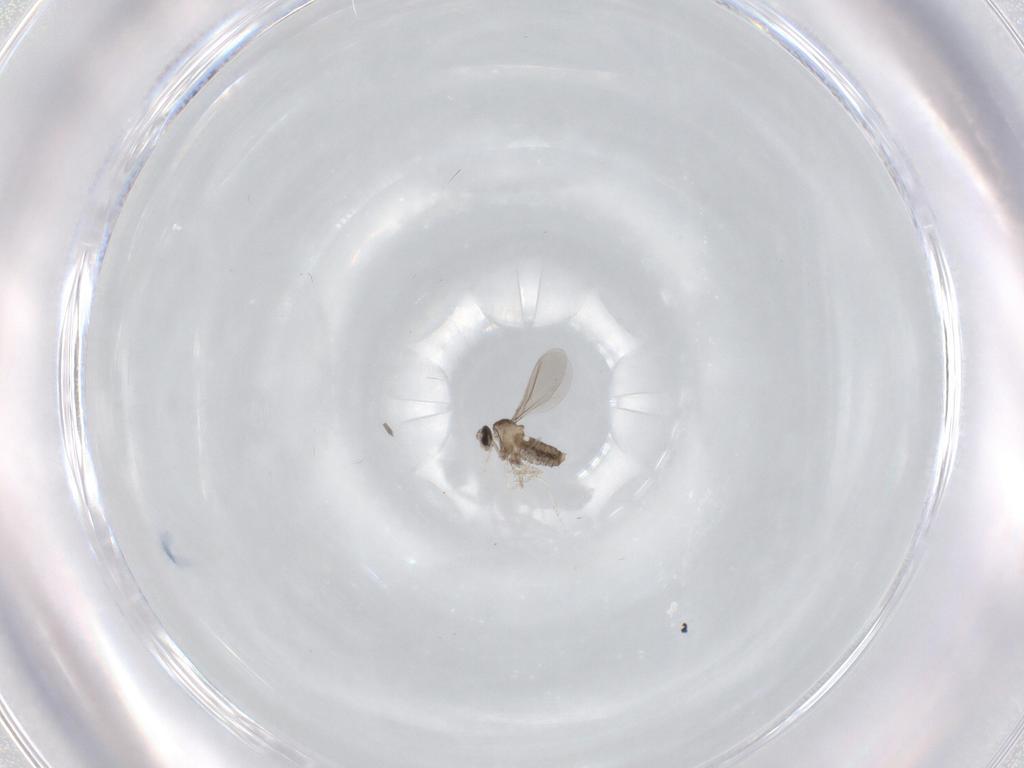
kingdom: Animalia
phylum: Arthropoda
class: Insecta
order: Diptera
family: Cecidomyiidae
